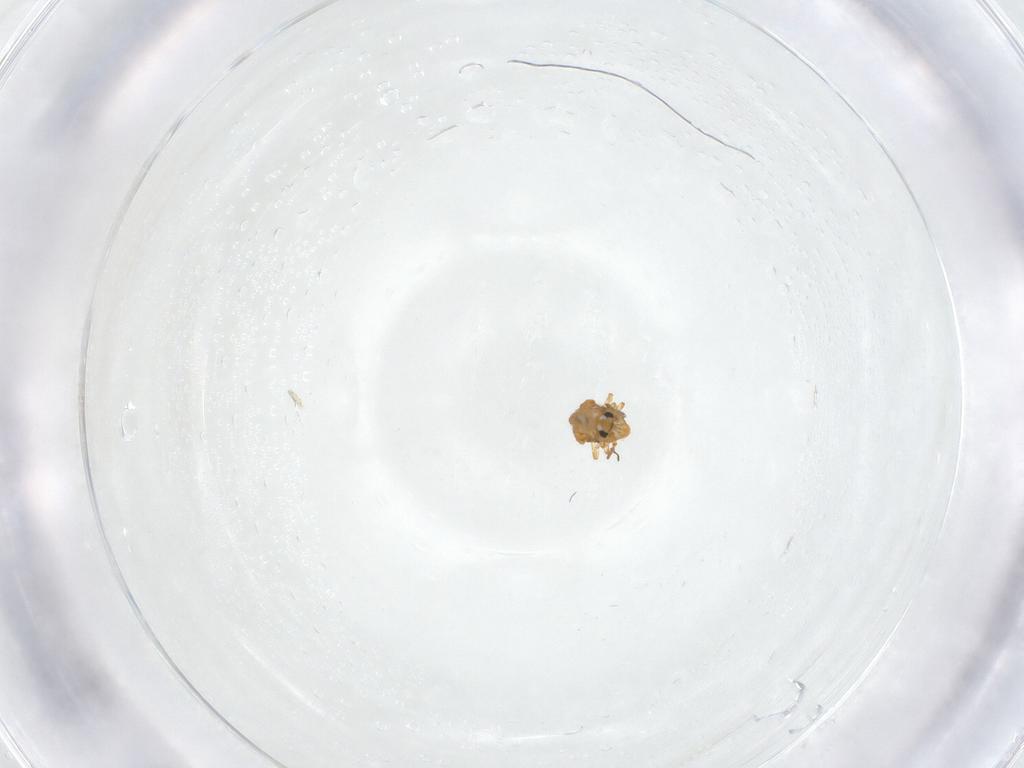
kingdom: Animalia
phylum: Arthropoda
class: Collembola
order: Symphypleona
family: Katiannidae
